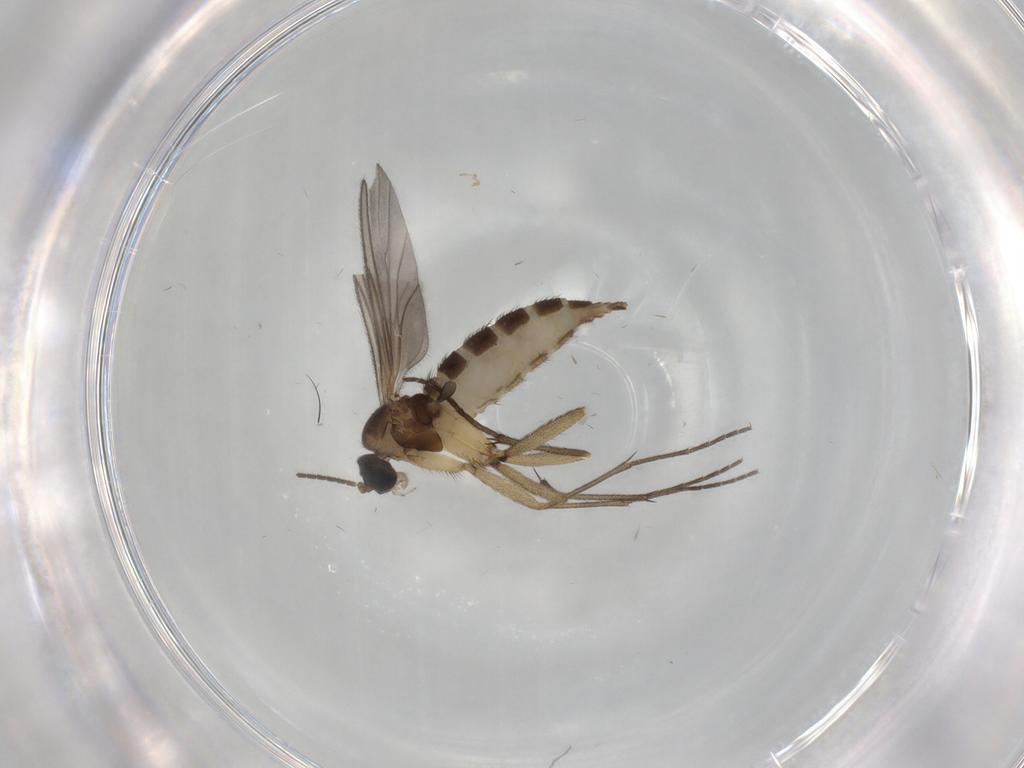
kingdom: Animalia
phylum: Arthropoda
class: Insecta
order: Diptera
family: Sciaridae
